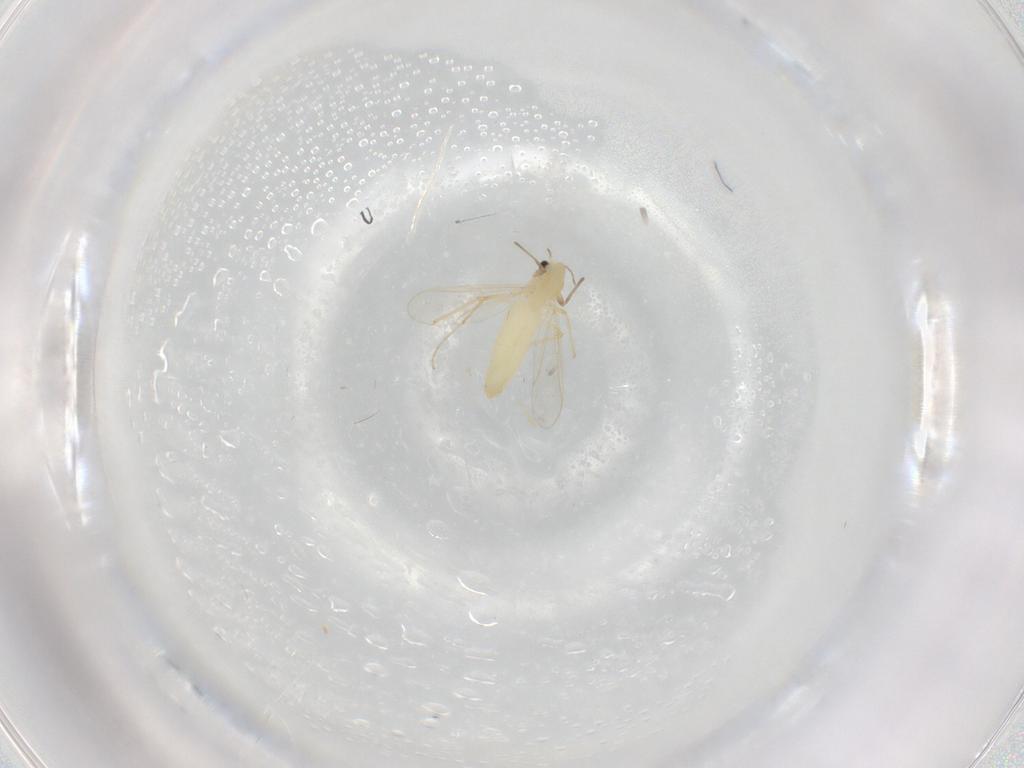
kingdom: Animalia
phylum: Arthropoda
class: Insecta
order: Diptera
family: Chironomidae
